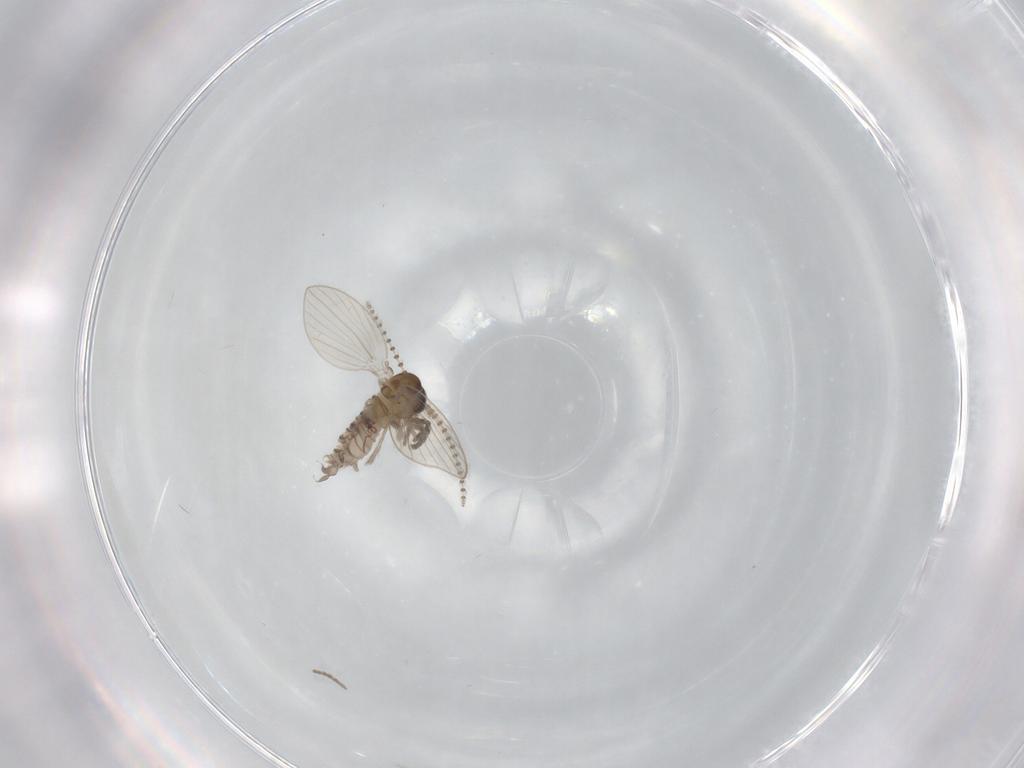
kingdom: Animalia
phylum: Arthropoda
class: Insecta
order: Diptera
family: Psychodidae
